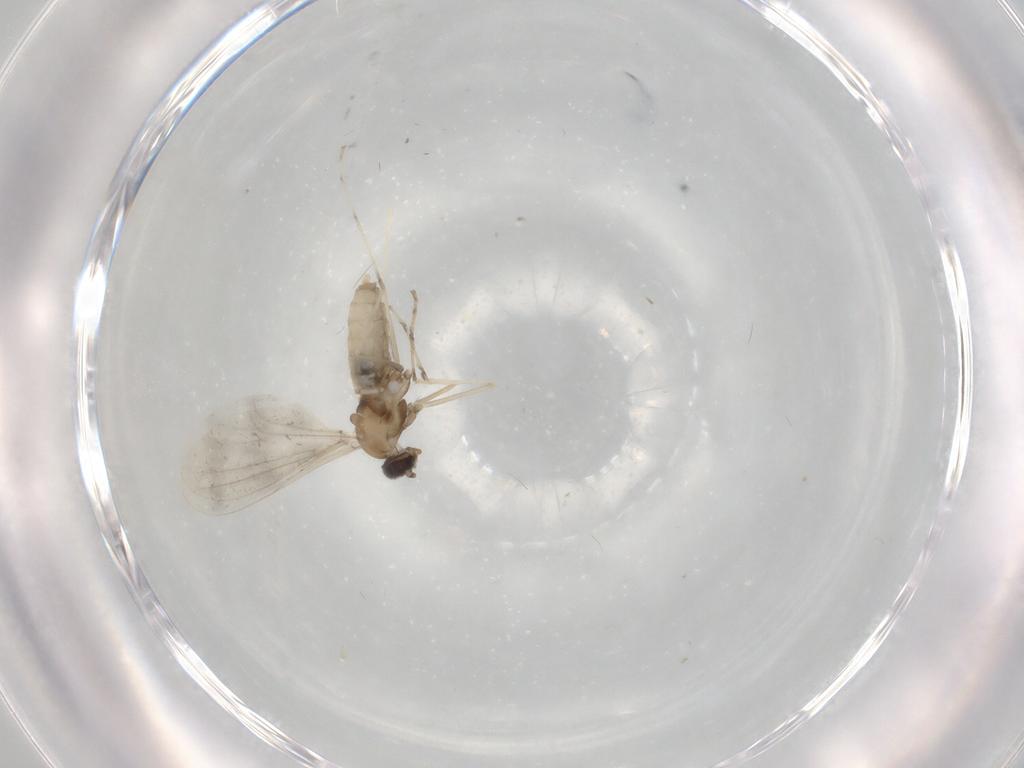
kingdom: Animalia
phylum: Arthropoda
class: Insecta
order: Diptera
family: Cecidomyiidae
